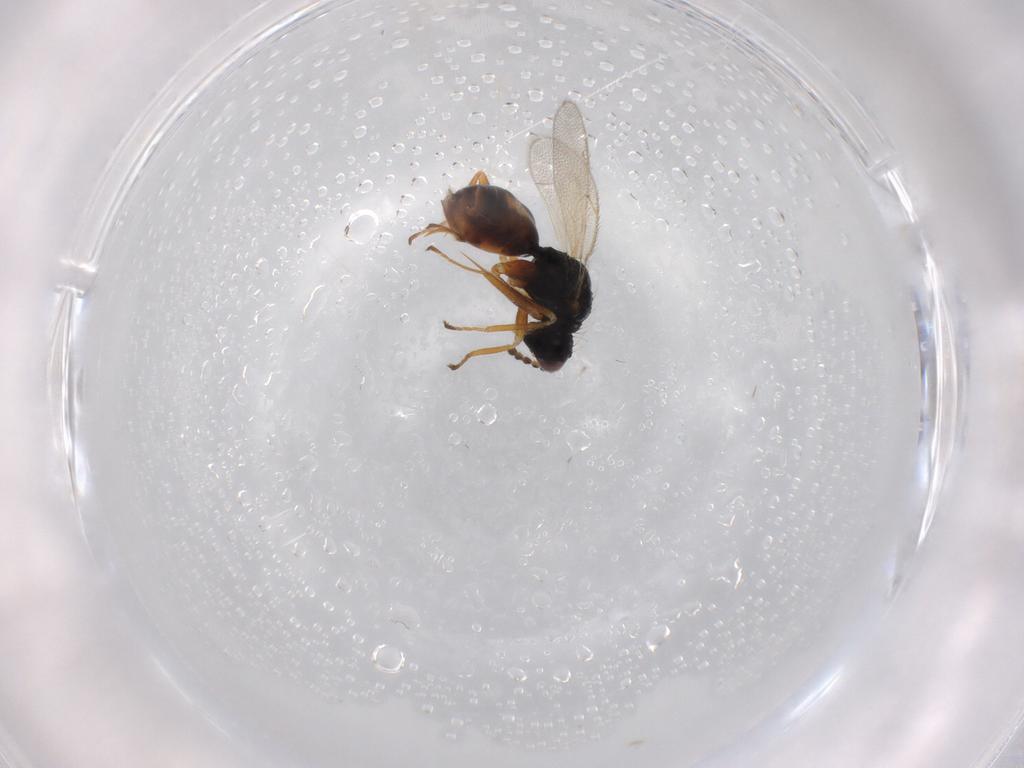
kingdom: Animalia
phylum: Arthropoda
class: Insecta
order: Hymenoptera
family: Eulophidae
